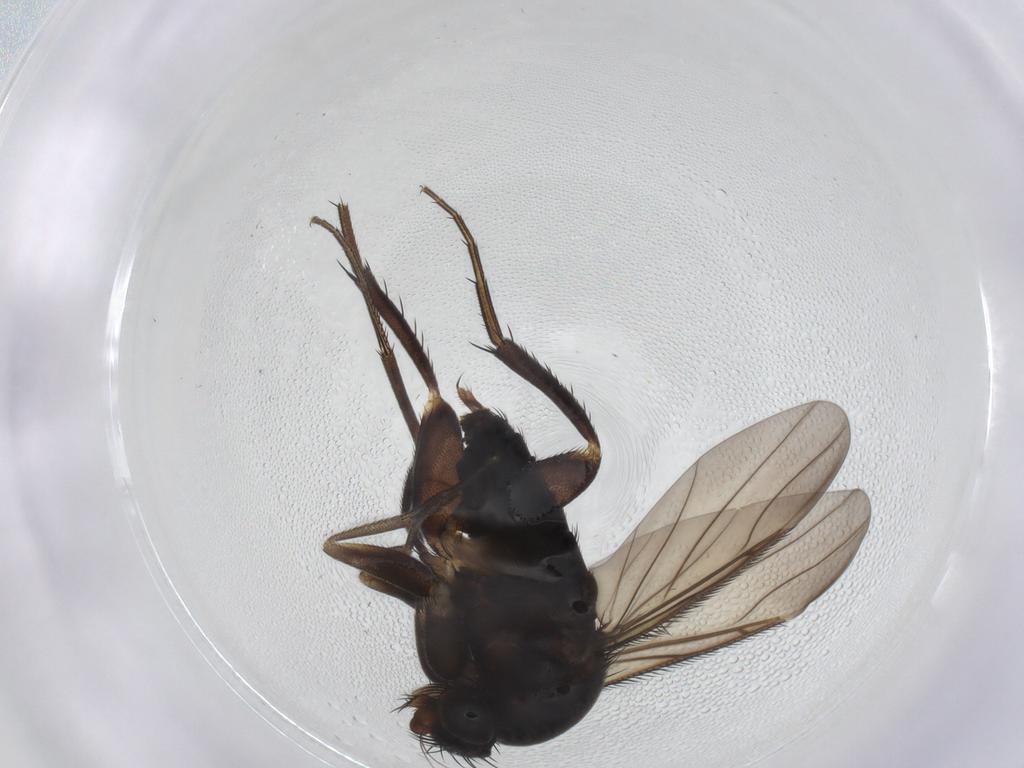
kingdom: Animalia
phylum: Arthropoda
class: Insecta
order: Diptera
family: Phoridae
